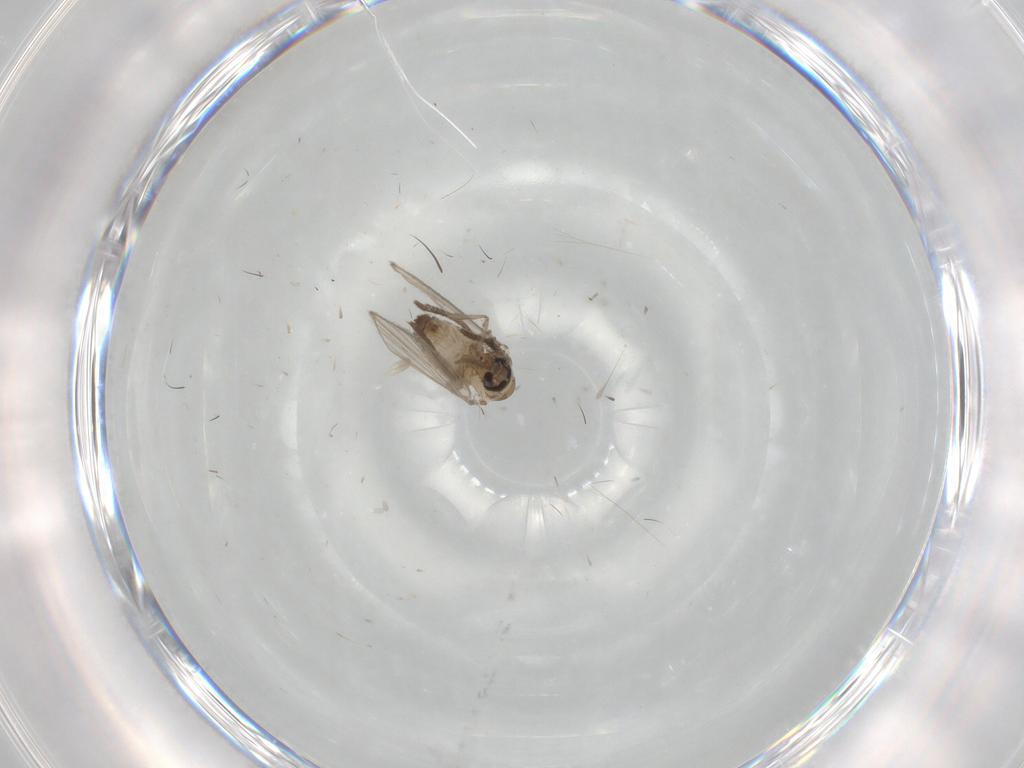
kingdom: Animalia
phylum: Arthropoda
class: Insecta
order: Diptera
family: Psychodidae
